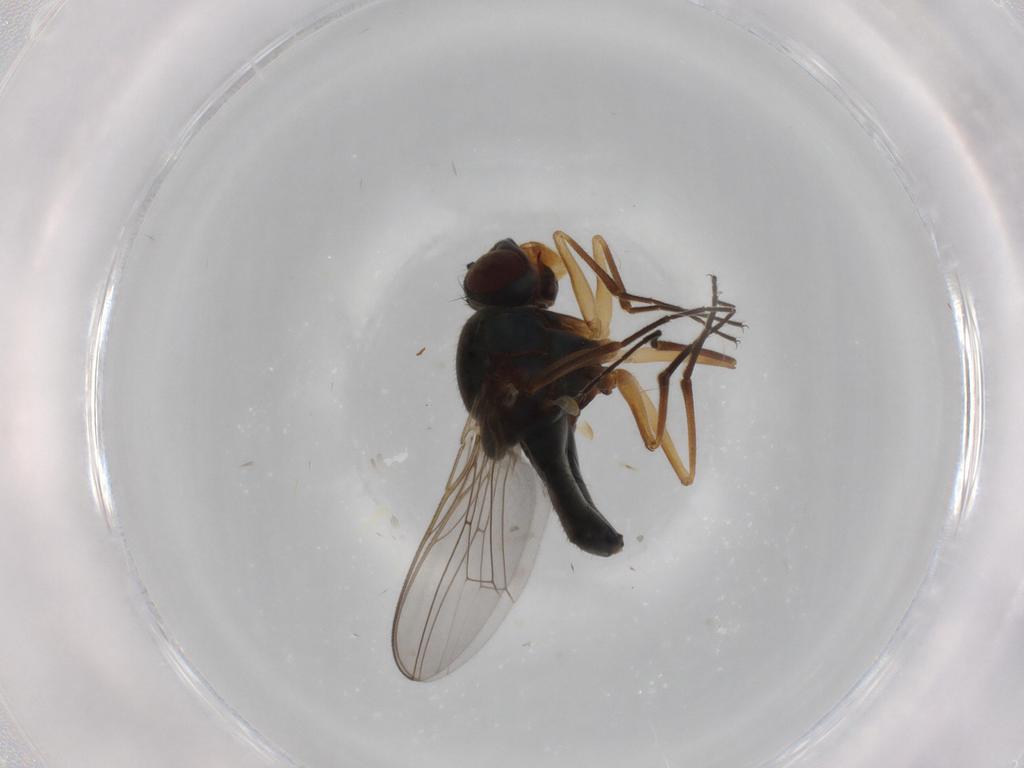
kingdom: Animalia
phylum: Arthropoda
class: Insecta
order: Diptera
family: Ephydridae
